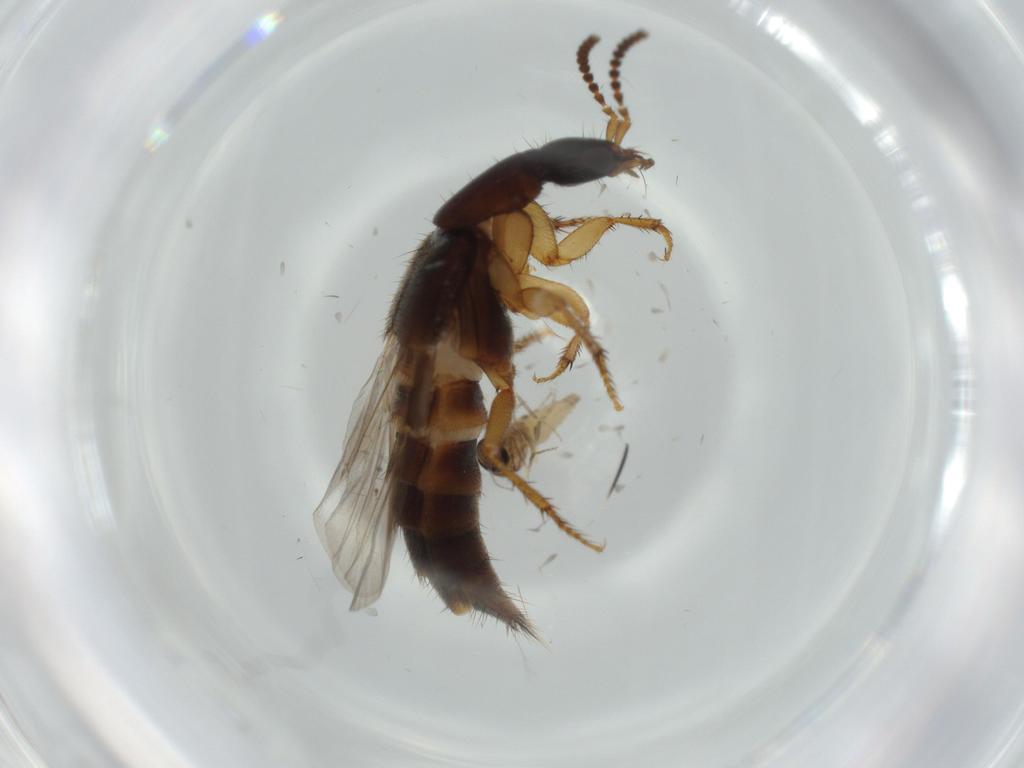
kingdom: Animalia
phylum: Arthropoda
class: Insecta
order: Coleoptera
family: Staphylinidae
